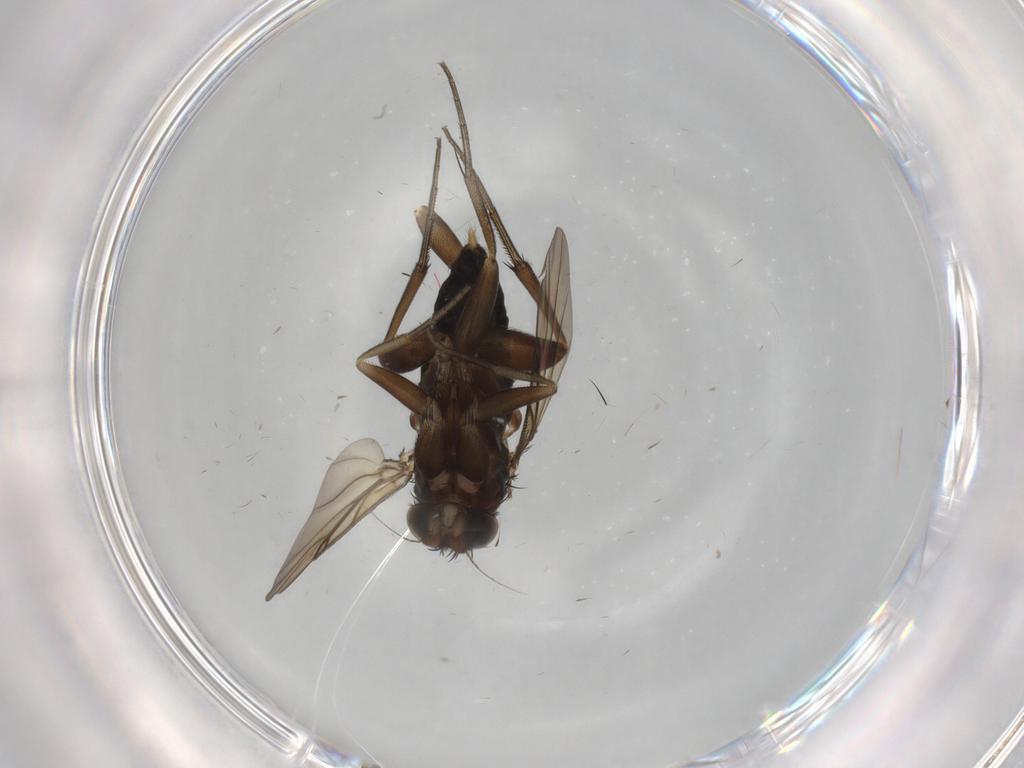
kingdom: Animalia
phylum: Arthropoda
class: Insecta
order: Diptera
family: Phoridae
